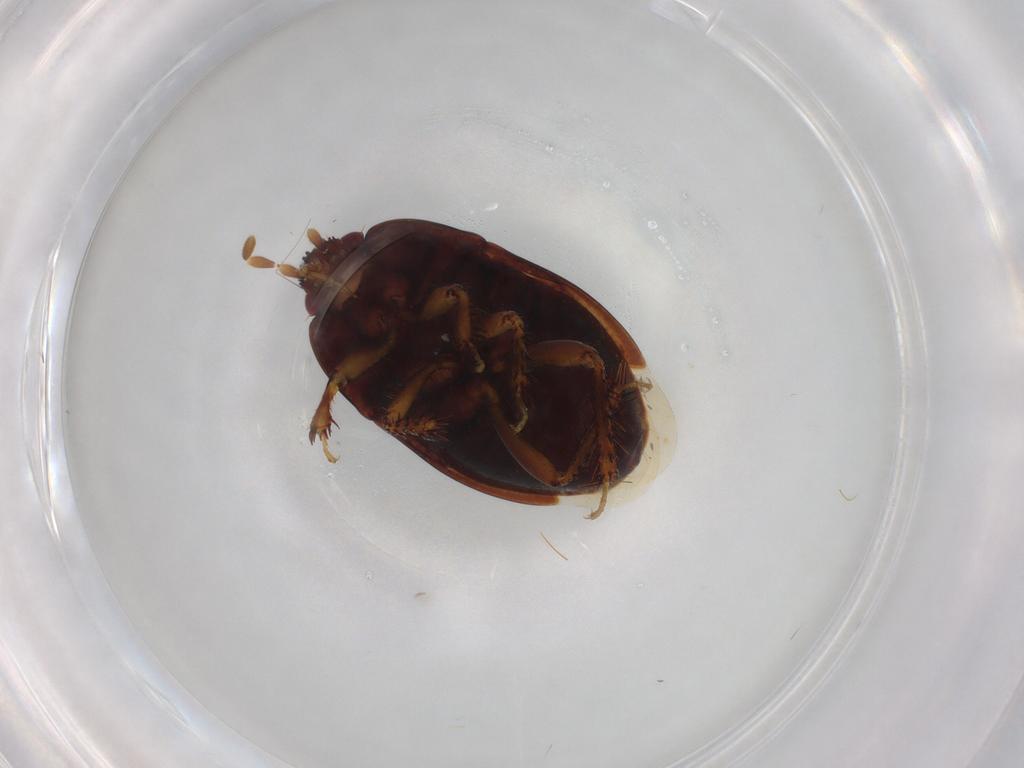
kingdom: Animalia
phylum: Arthropoda
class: Insecta
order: Hemiptera
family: Cydnidae
